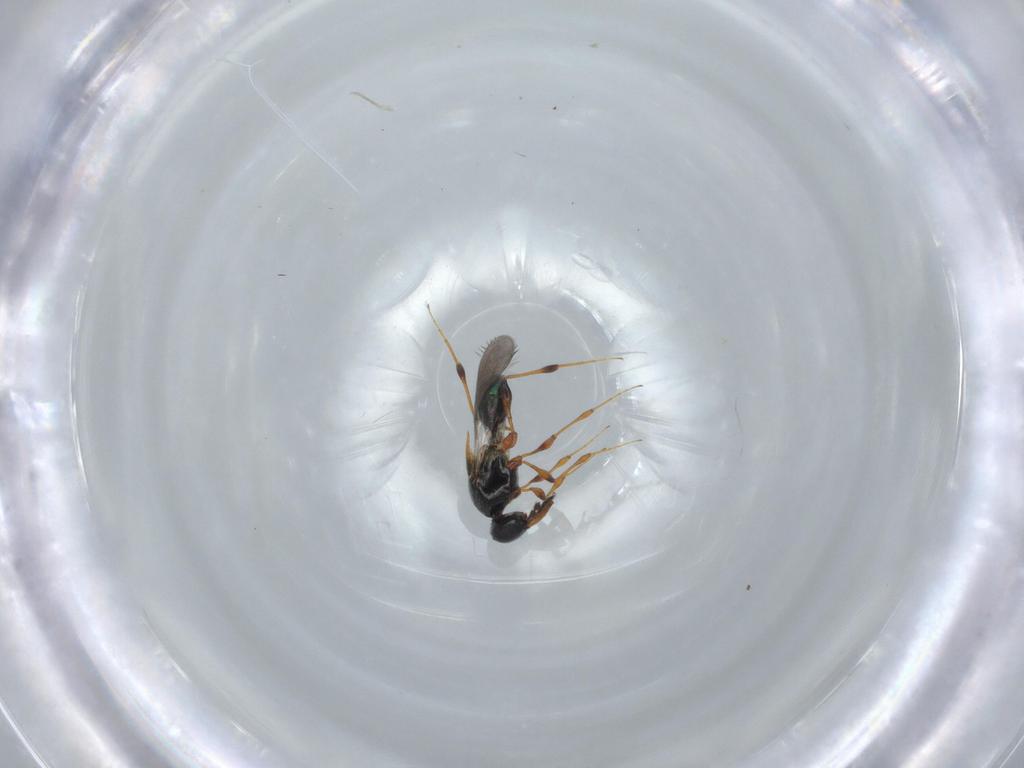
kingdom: Animalia
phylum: Arthropoda
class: Insecta
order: Hymenoptera
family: Platygastridae
